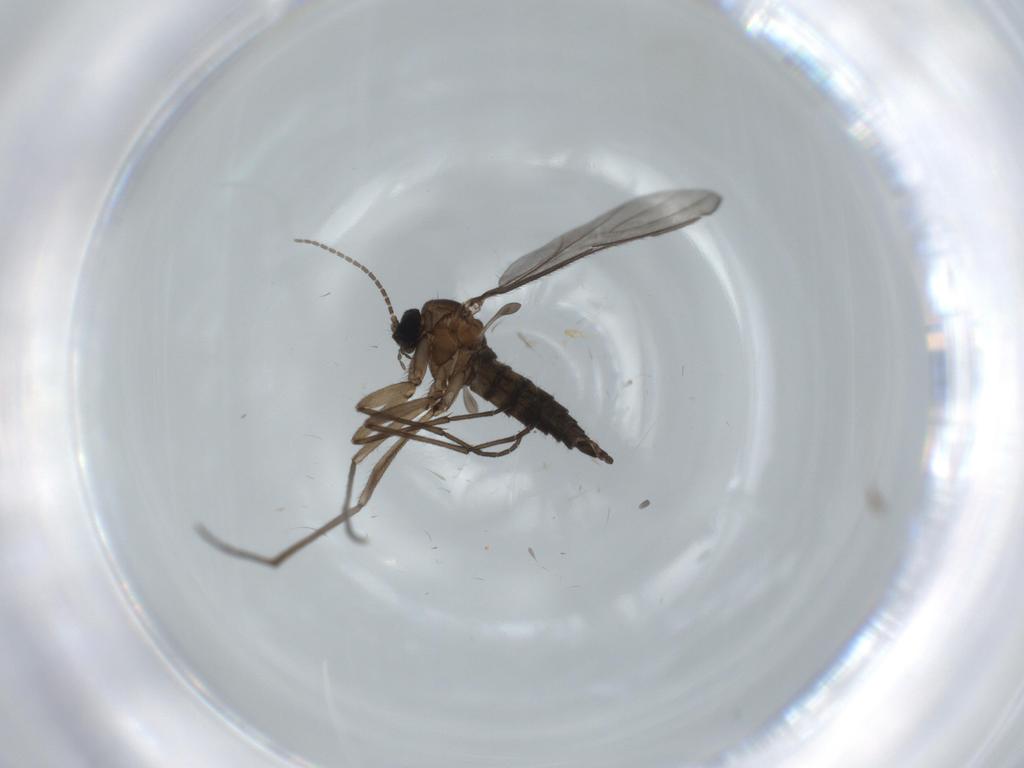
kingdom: Animalia
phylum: Arthropoda
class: Insecta
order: Diptera
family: Sciaridae
